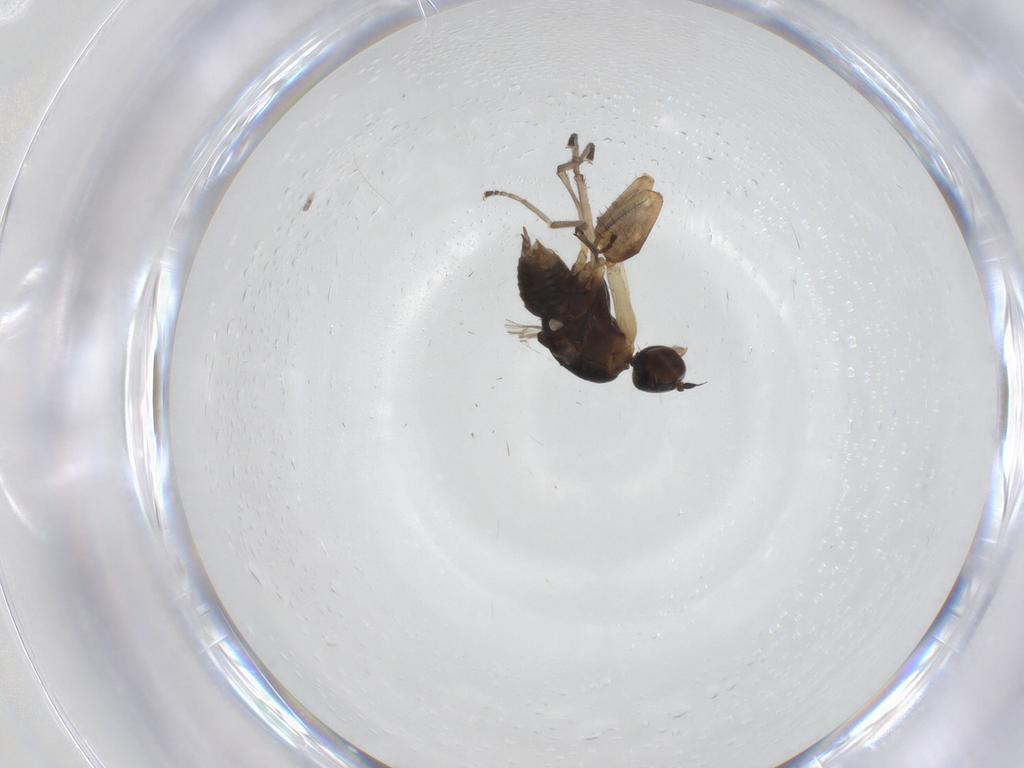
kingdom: Animalia
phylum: Arthropoda
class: Insecta
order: Diptera
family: Empididae
